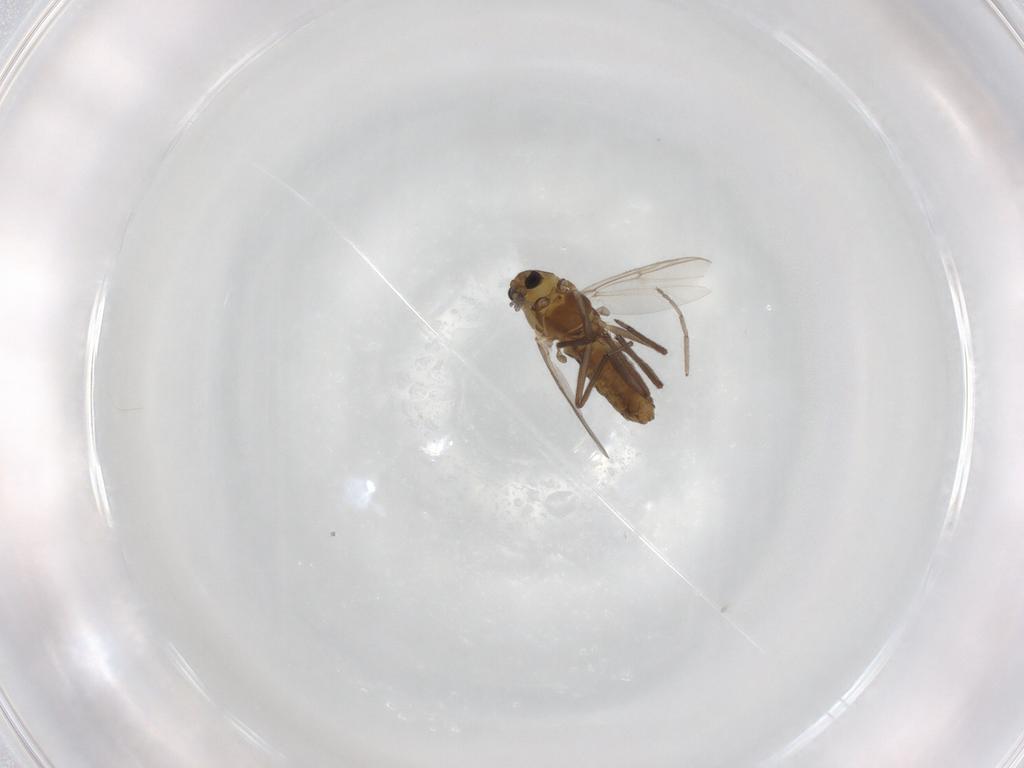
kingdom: Animalia
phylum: Arthropoda
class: Insecta
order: Diptera
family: Chironomidae
